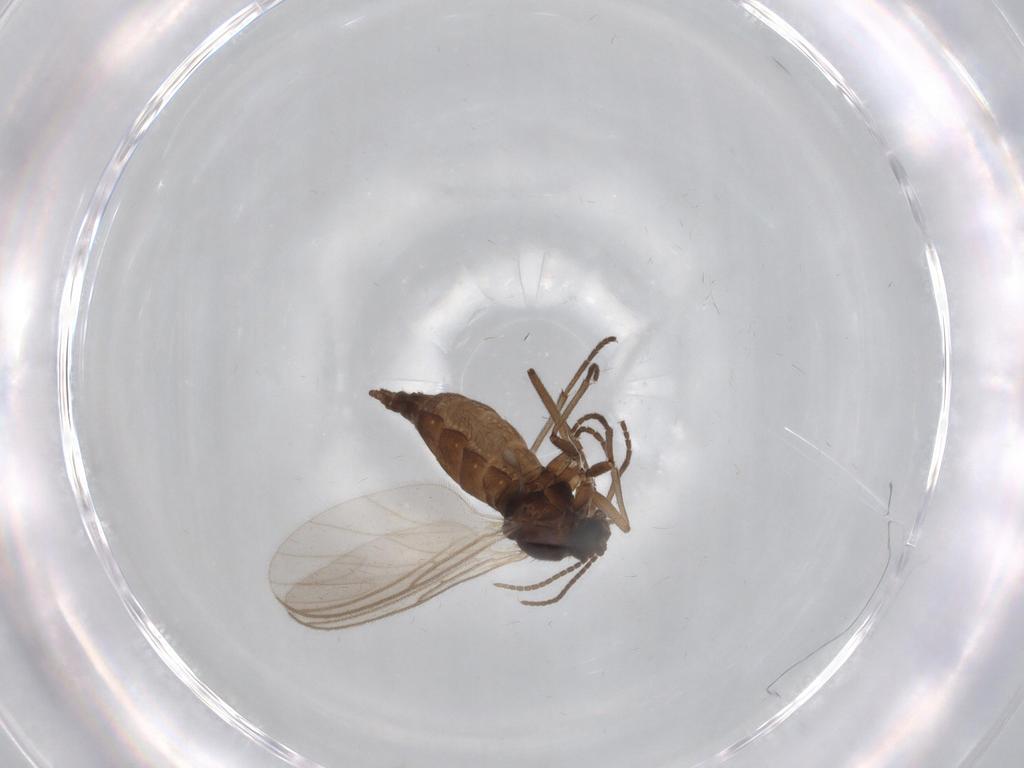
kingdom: Animalia
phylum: Arthropoda
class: Insecta
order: Diptera
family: Sciaridae
